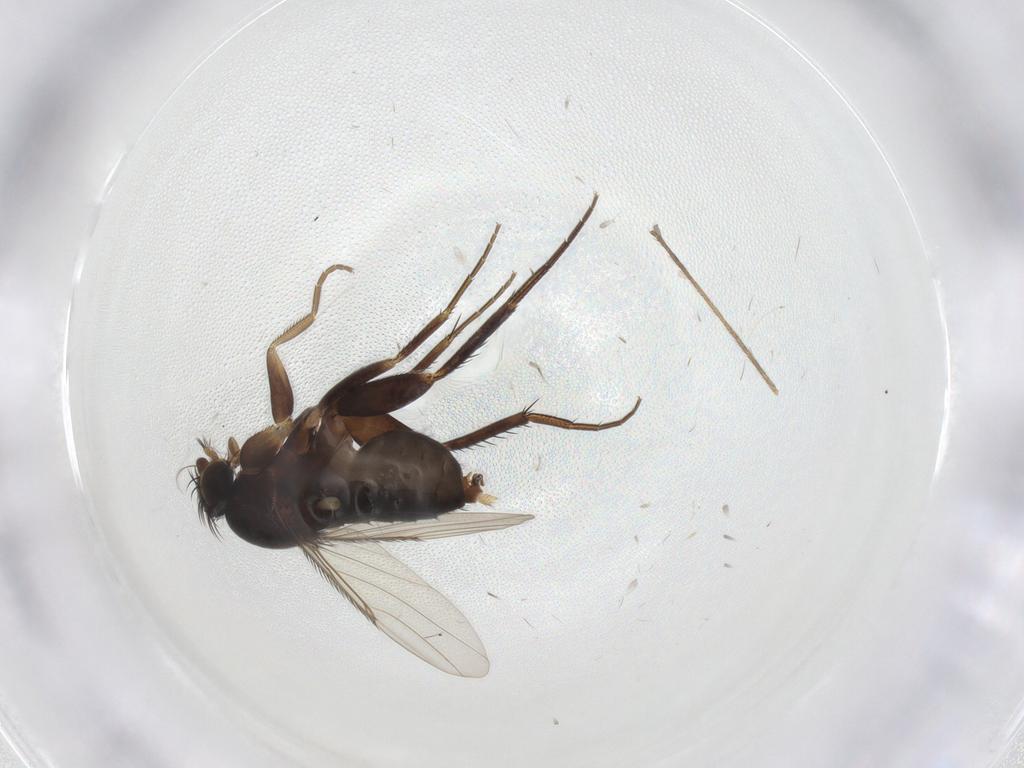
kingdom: Animalia
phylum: Arthropoda
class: Insecta
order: Diptera
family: Phoridae
